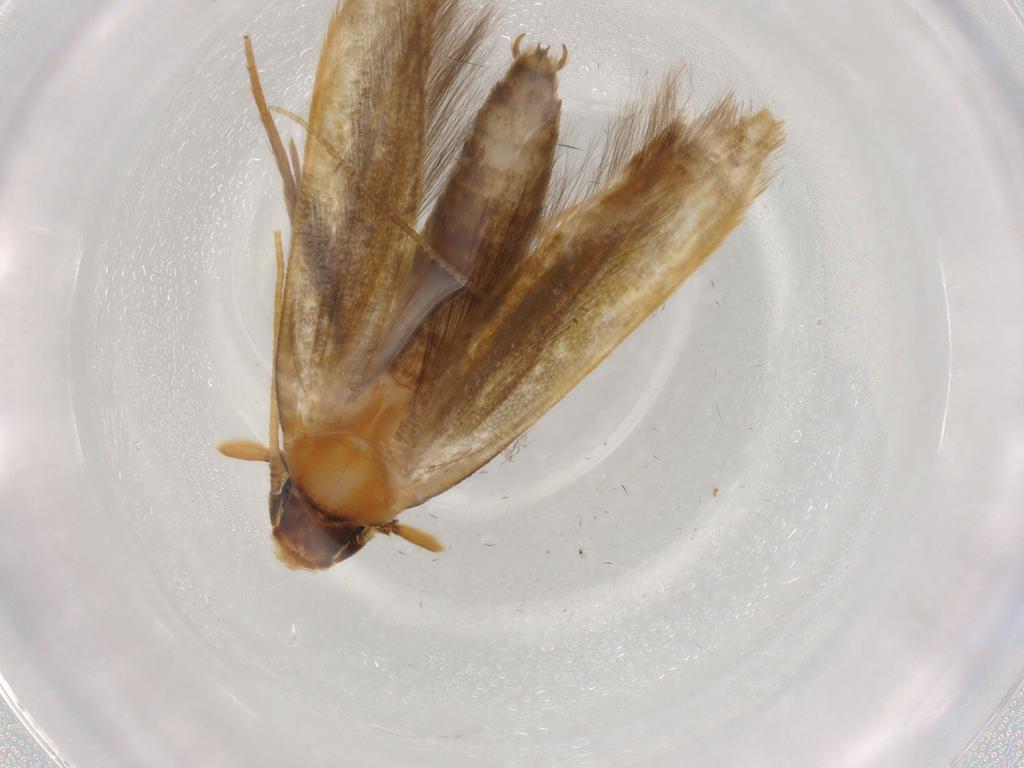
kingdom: Animalia
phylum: Arthropoda
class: Insecta
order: Lepidoptera
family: Tineidae
